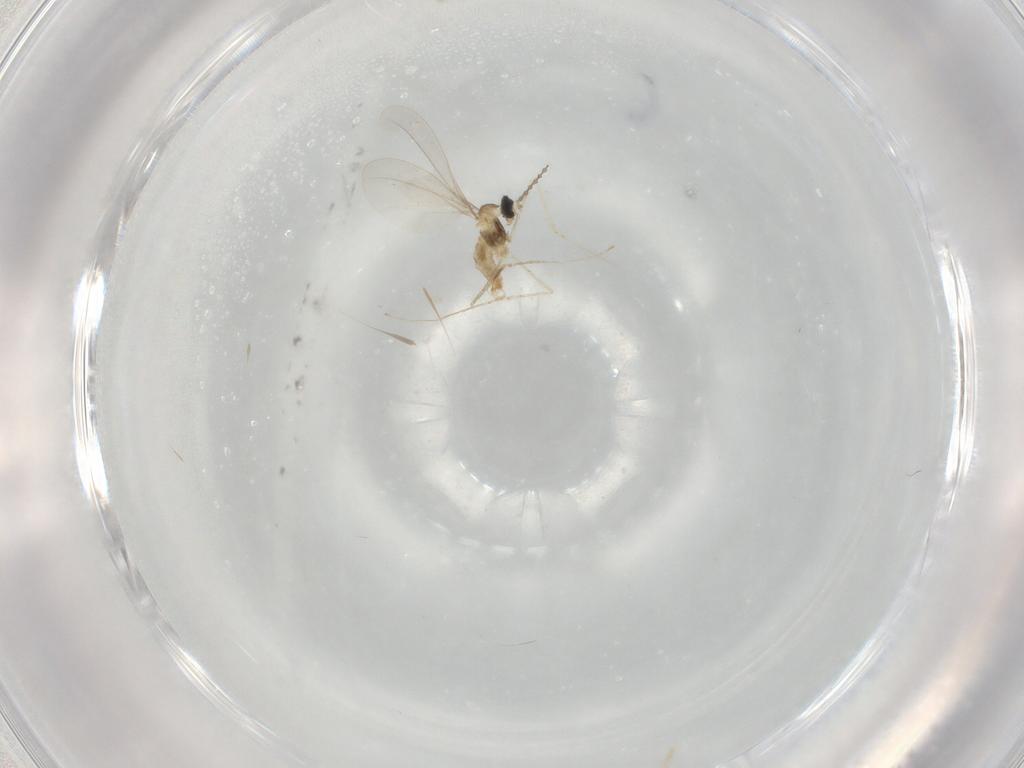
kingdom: Animalia
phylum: Arthropoda
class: Insecta
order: Diptera
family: Cecidomyiidae
